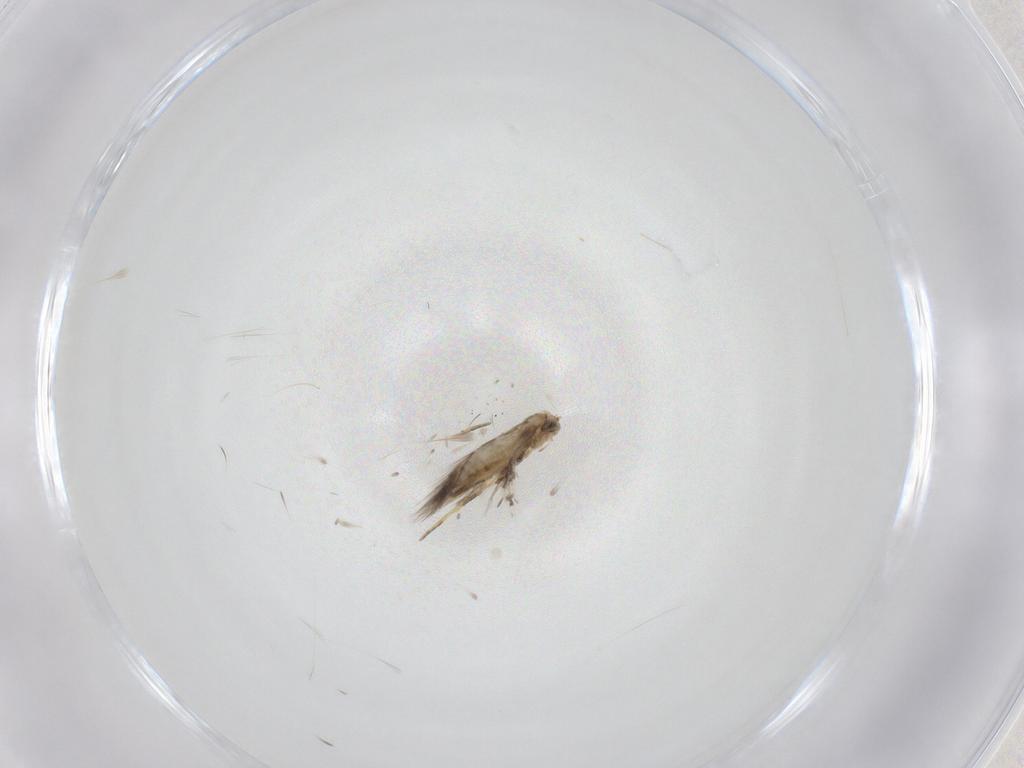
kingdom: Animalia
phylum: Arthropoda
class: Insecta
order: Lepidoptera
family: Nepticulidae
